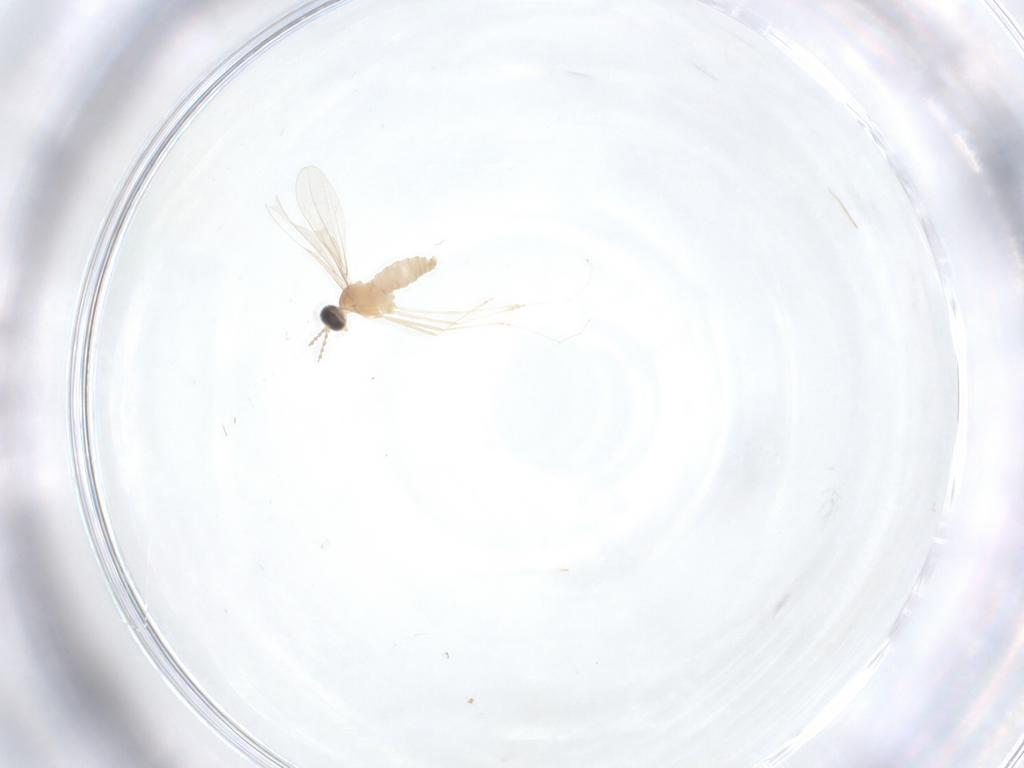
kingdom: Animalia
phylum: Arthropoda
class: Insecta
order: Diptera
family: Cecidomyiidae
